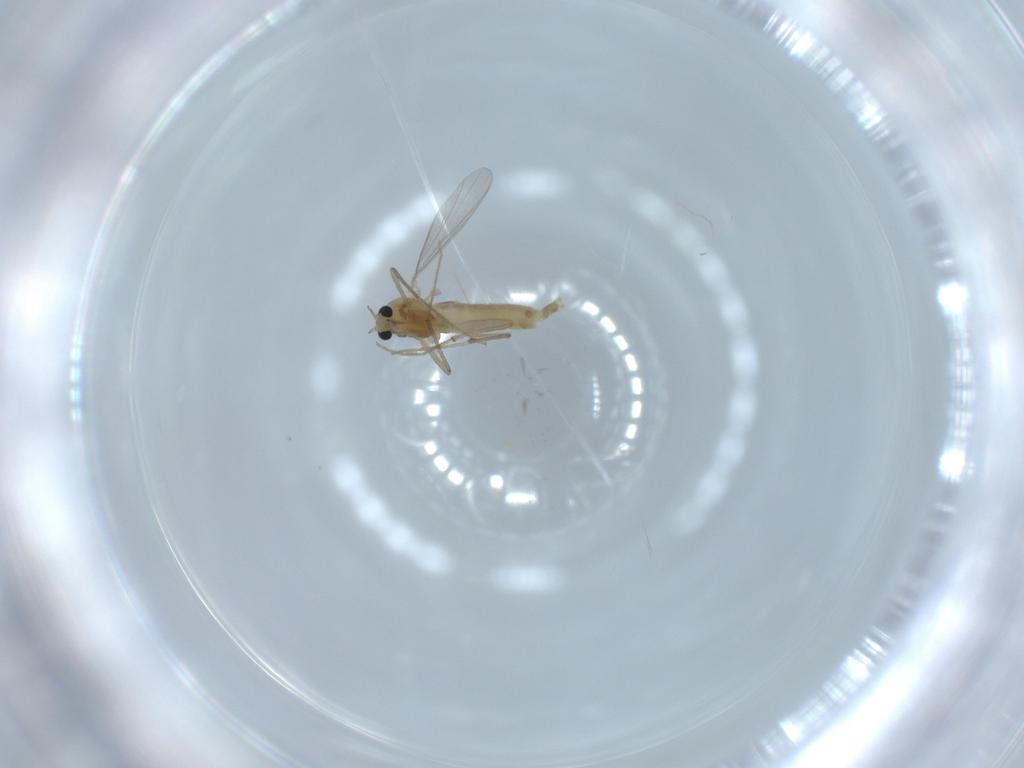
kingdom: Animalia
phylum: Arthropoda
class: Insecta
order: Diptera
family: Chironomidae
